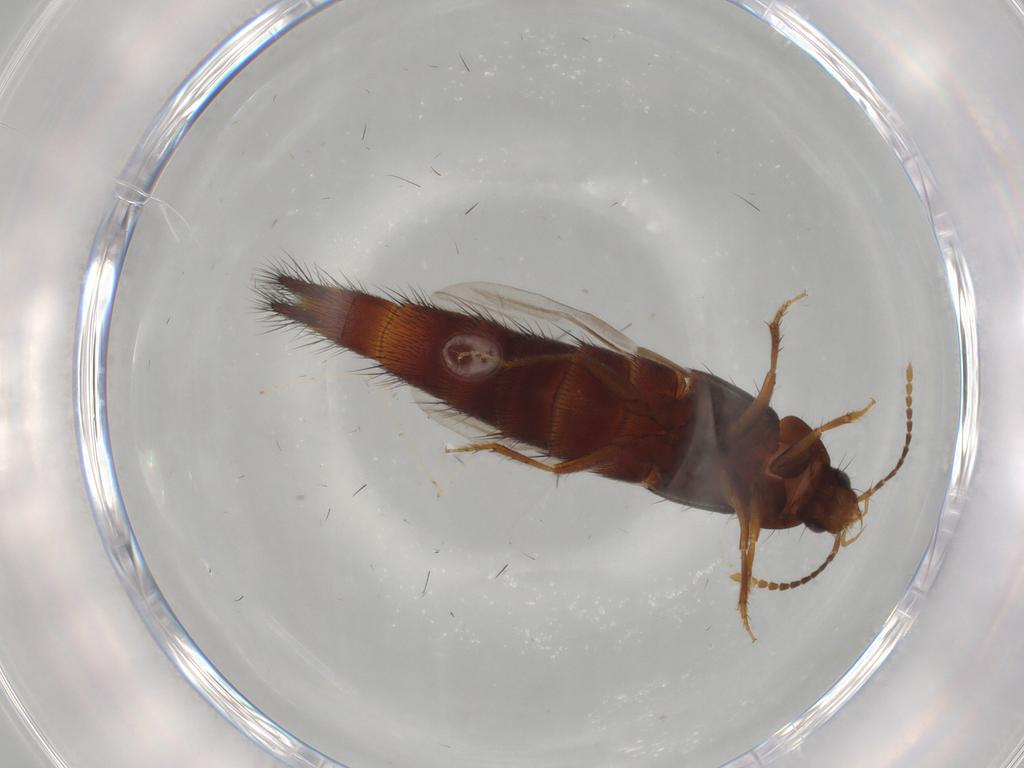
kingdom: Animalia
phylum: Arthropoda
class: Insecta
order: Coleoptera
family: Staphylinidae
